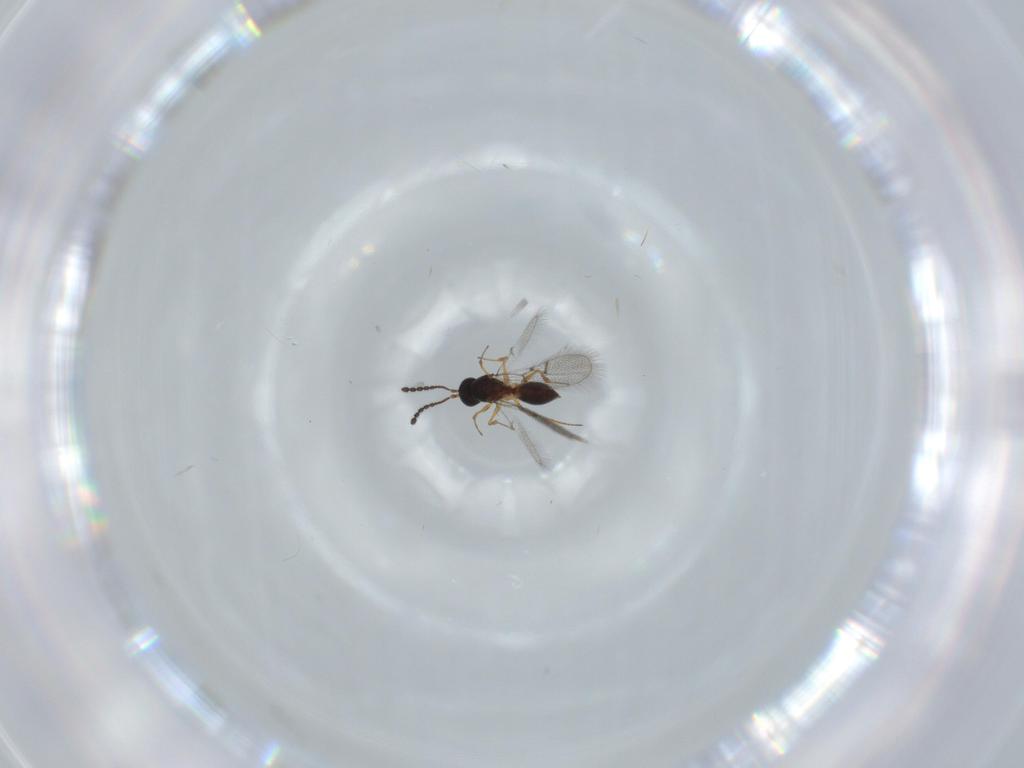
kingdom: Animalia
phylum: Arthropoda
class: Insecta
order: Hymenoptera
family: Figitidae
